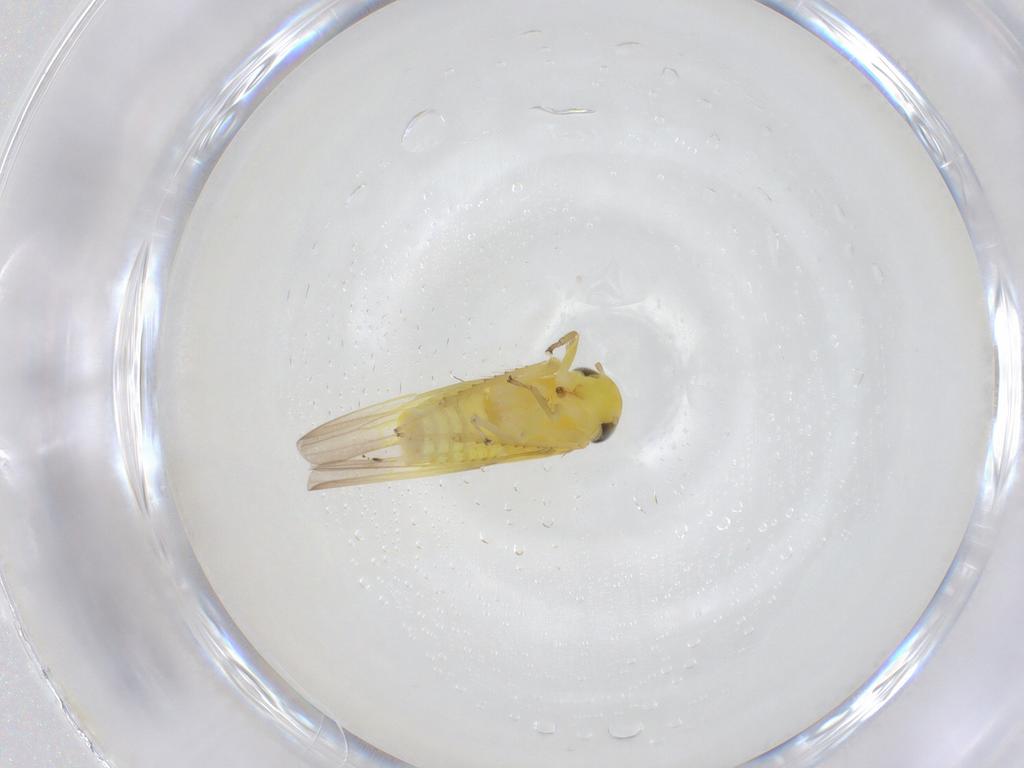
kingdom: Animalia
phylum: Arthropoda
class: Insecta
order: Hemiptera
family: Cicadellidae
